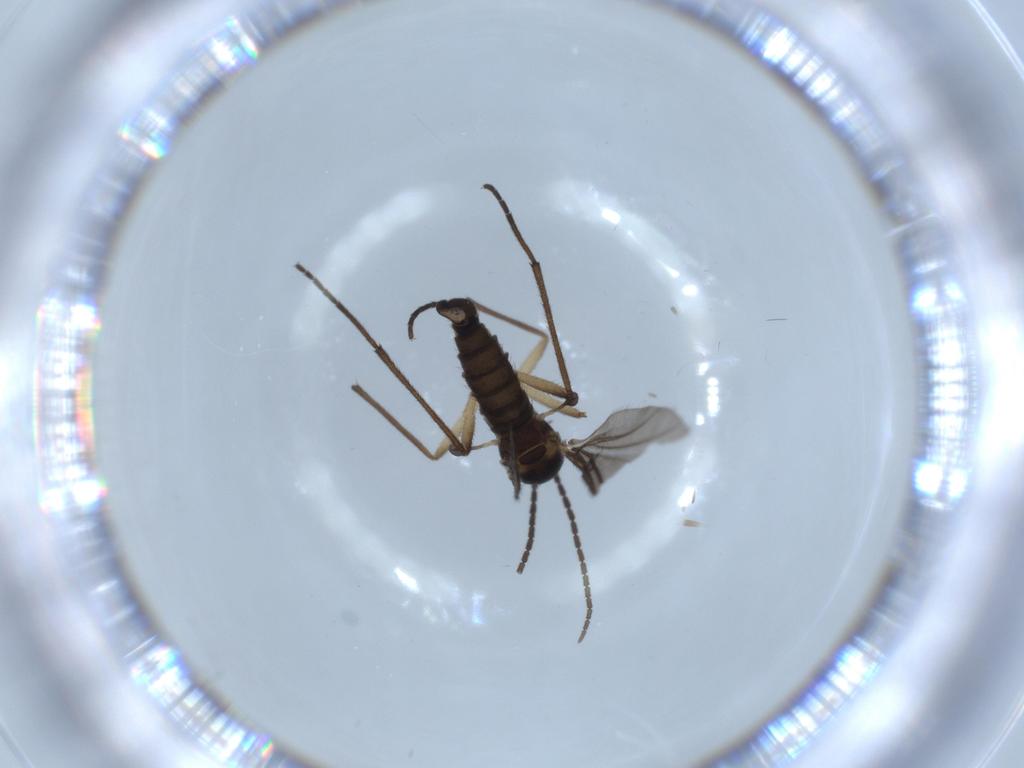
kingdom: Animalia
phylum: Arthropoda
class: Insecta
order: Diptera
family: Sciaridae
